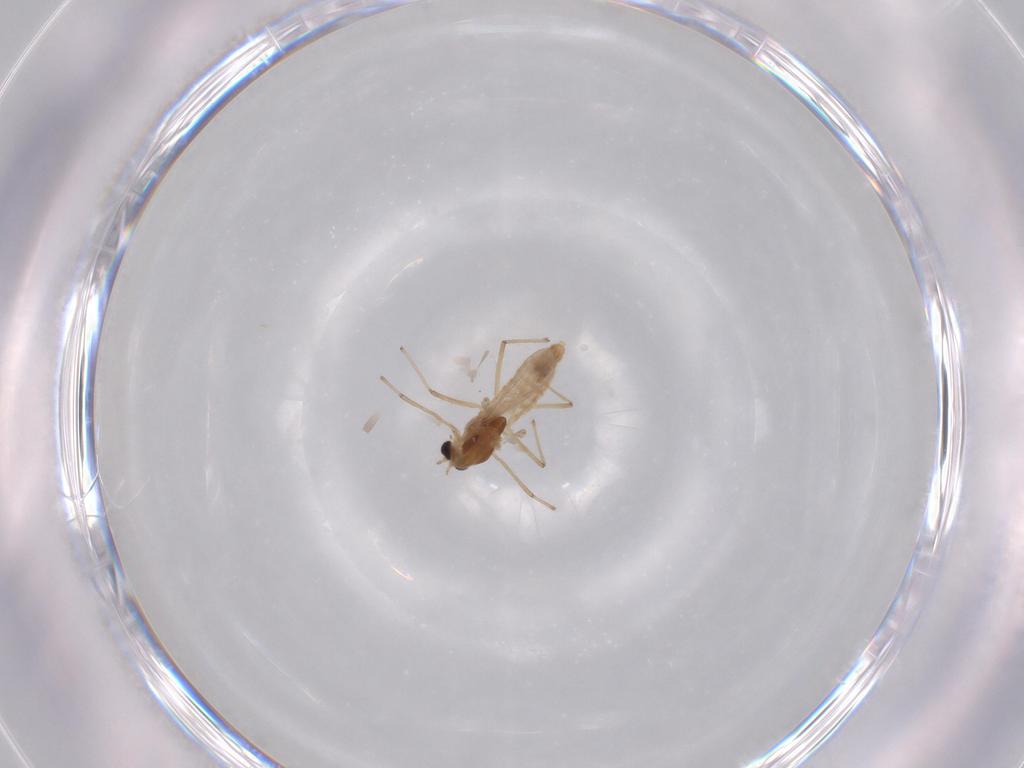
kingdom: Animalia
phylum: Arthropoda
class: Insecta
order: Diptera
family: Chironomidae
